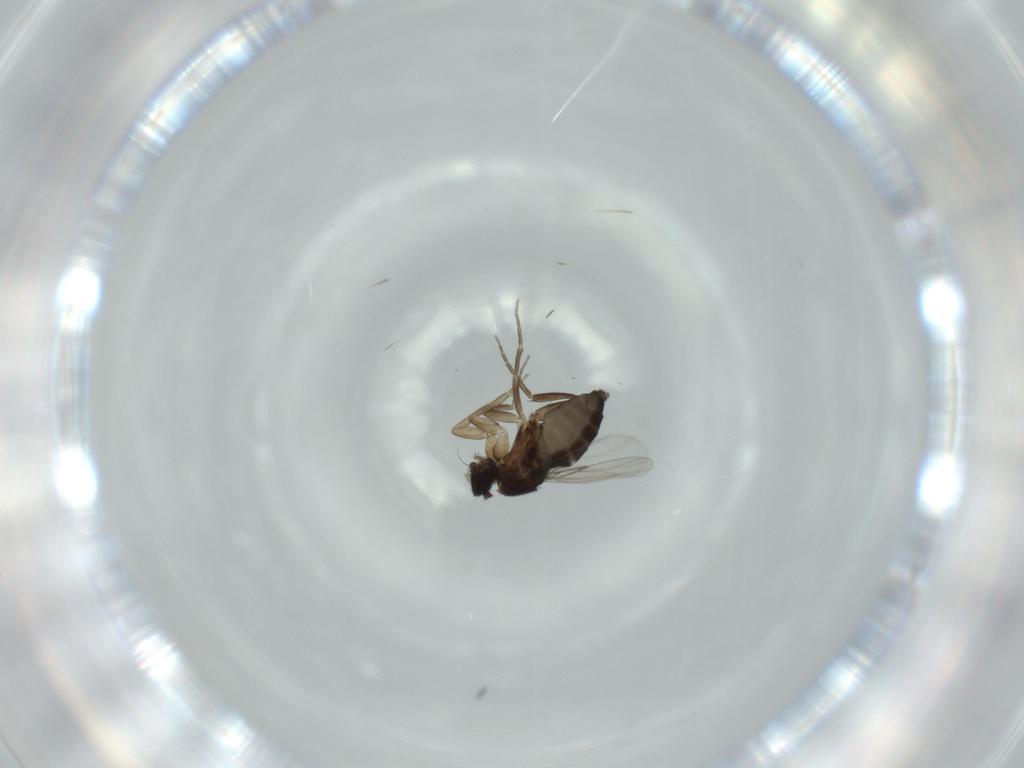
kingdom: Animalia
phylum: Arthropoda
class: Insecta
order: Diptera
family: Phoridae
